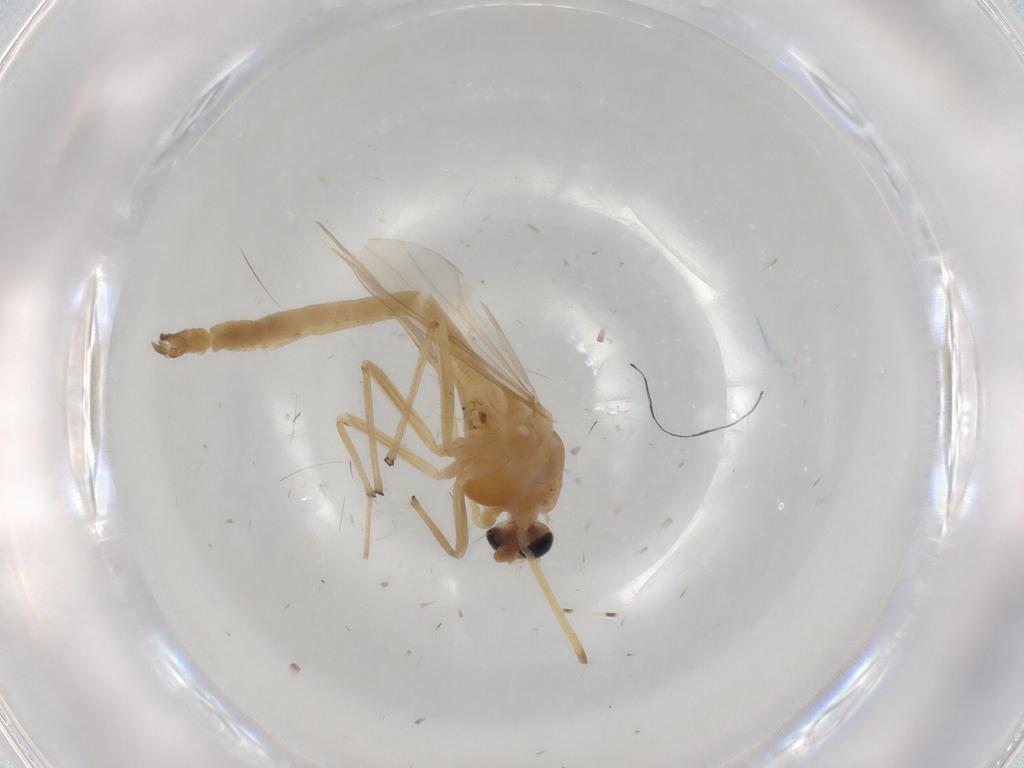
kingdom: Animalia
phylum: Arthropoda
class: Insecta
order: Diptera
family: Psychodidae
